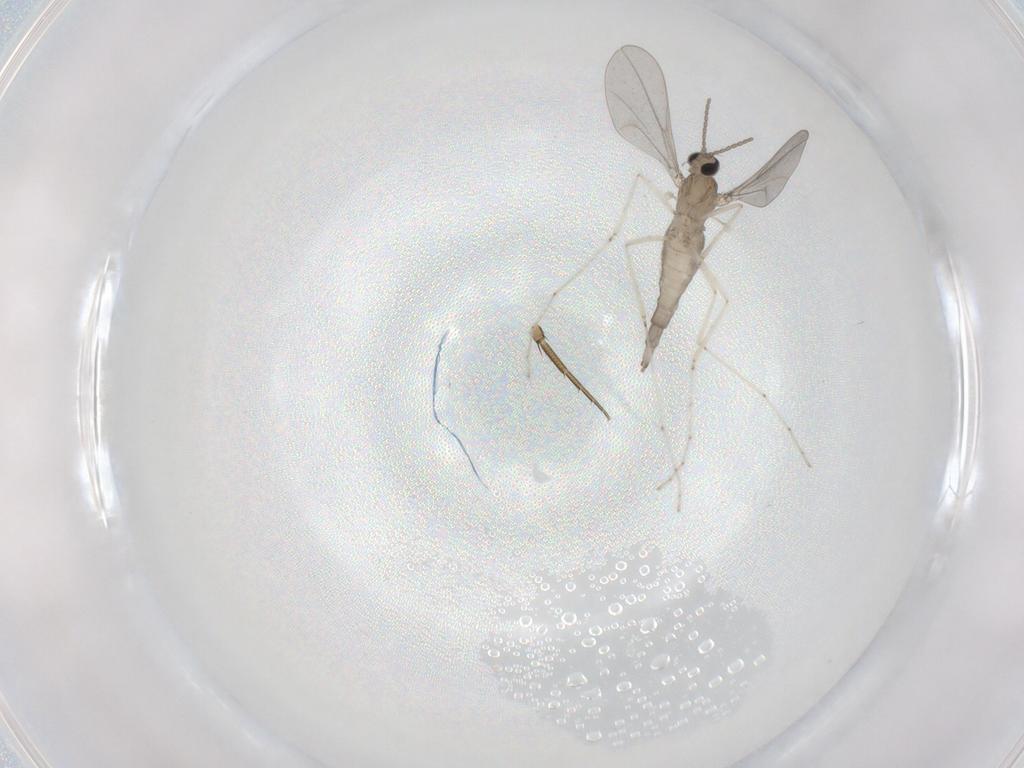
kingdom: Animalia
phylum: Arthropoda
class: Insecta
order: Diptera
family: Cecidomyiidae
